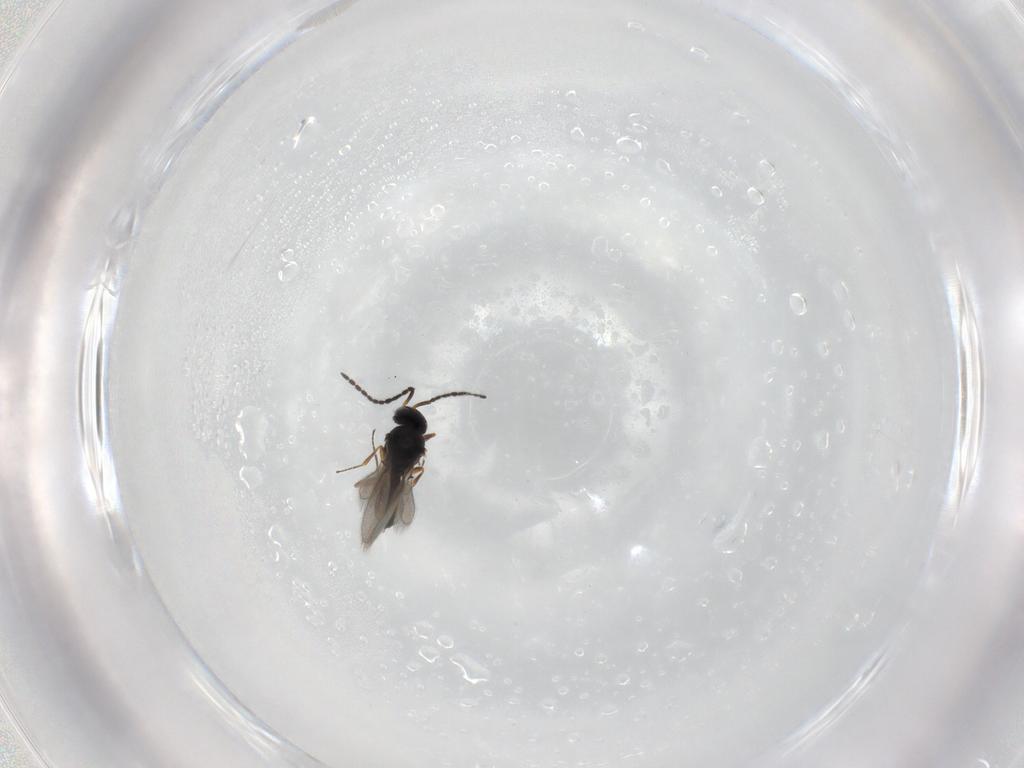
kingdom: Animalia
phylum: Arthropoda
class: Insecta
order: Hymenoptera
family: Scelionidae
